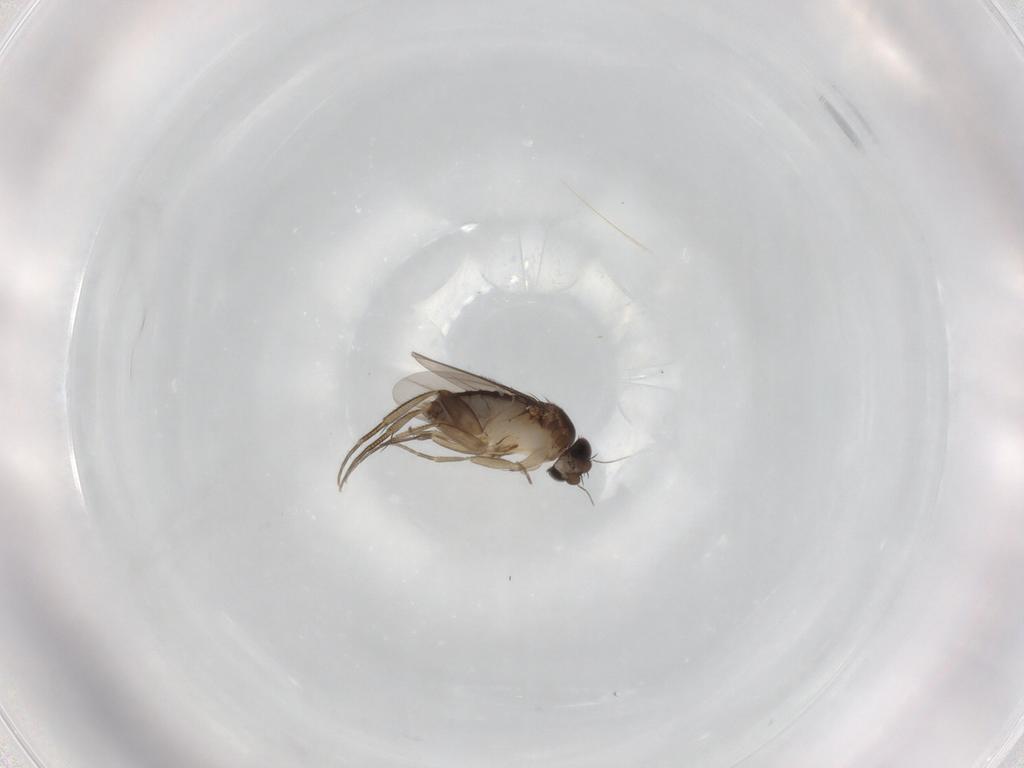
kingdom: Animalia
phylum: Arthropoda
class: Insecta
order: Diptera
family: Phoridae
